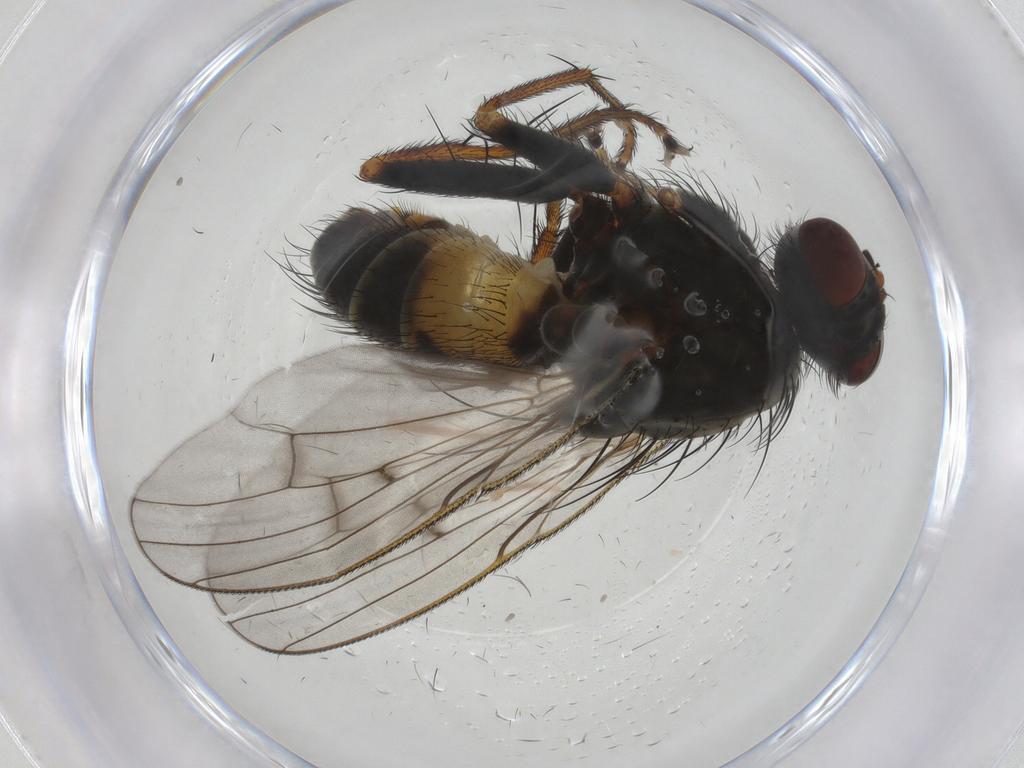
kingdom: Animalia
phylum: Arthropoda
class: Insecta
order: Diptera
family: Muscidae
